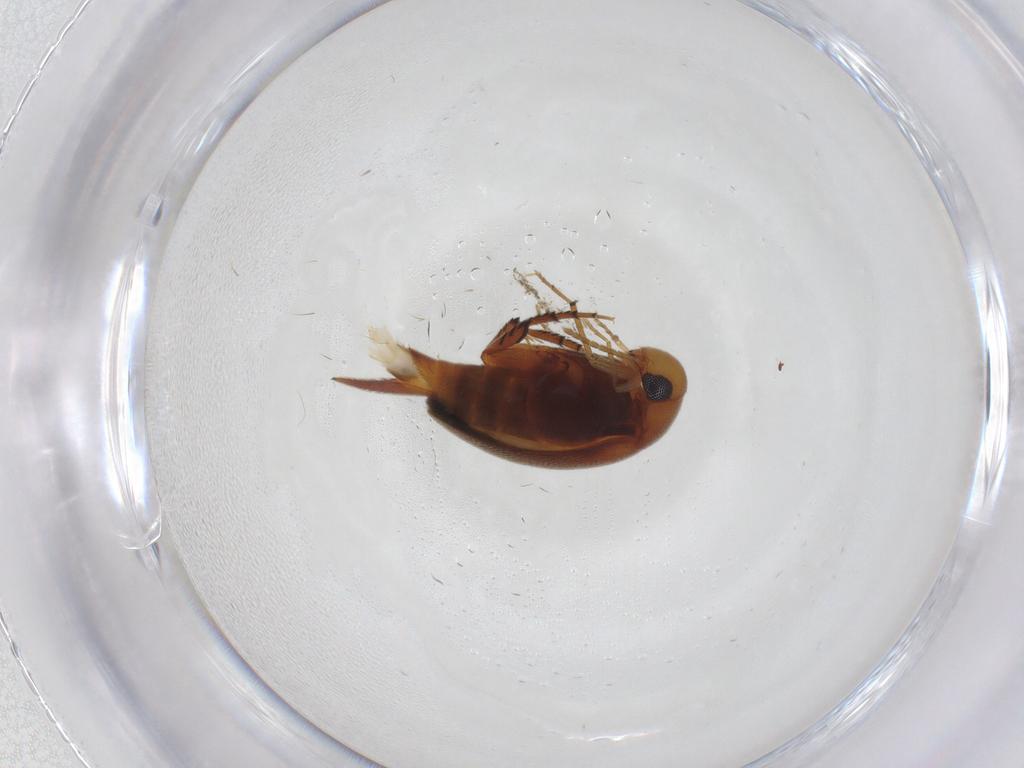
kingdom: Animalia
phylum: Arthropoda
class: Insecta
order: Coleoptera
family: Mordellidae
